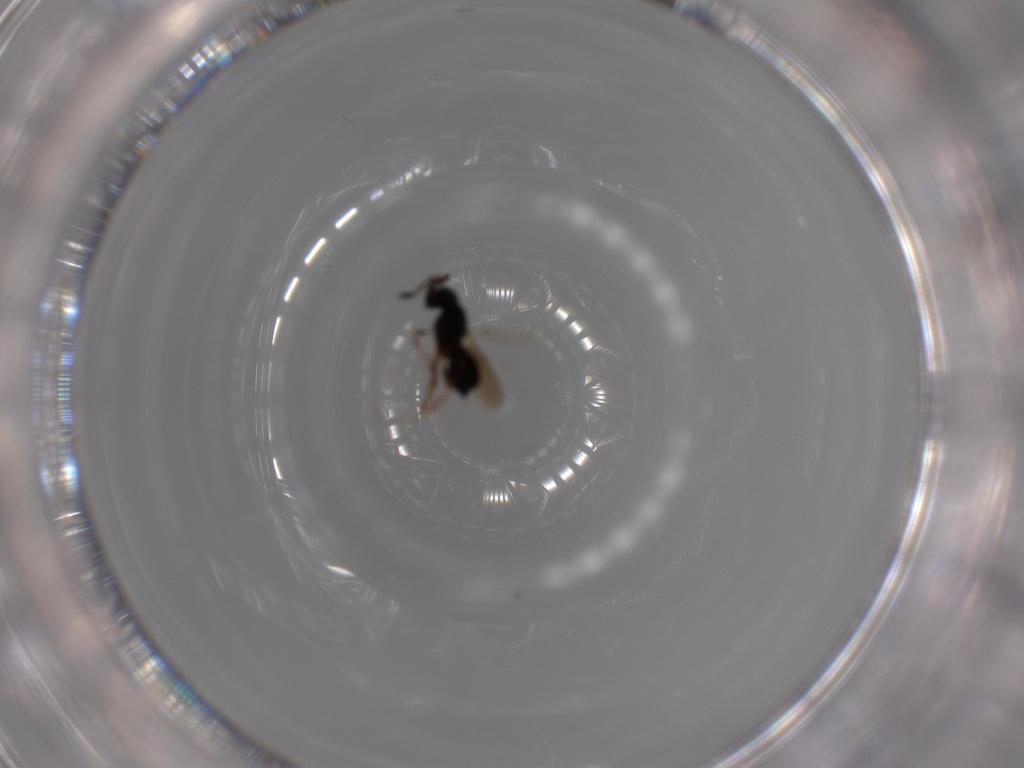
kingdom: Animalia
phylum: Arthropoda
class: Insecta
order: Hymenoptera
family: Scelionidae
